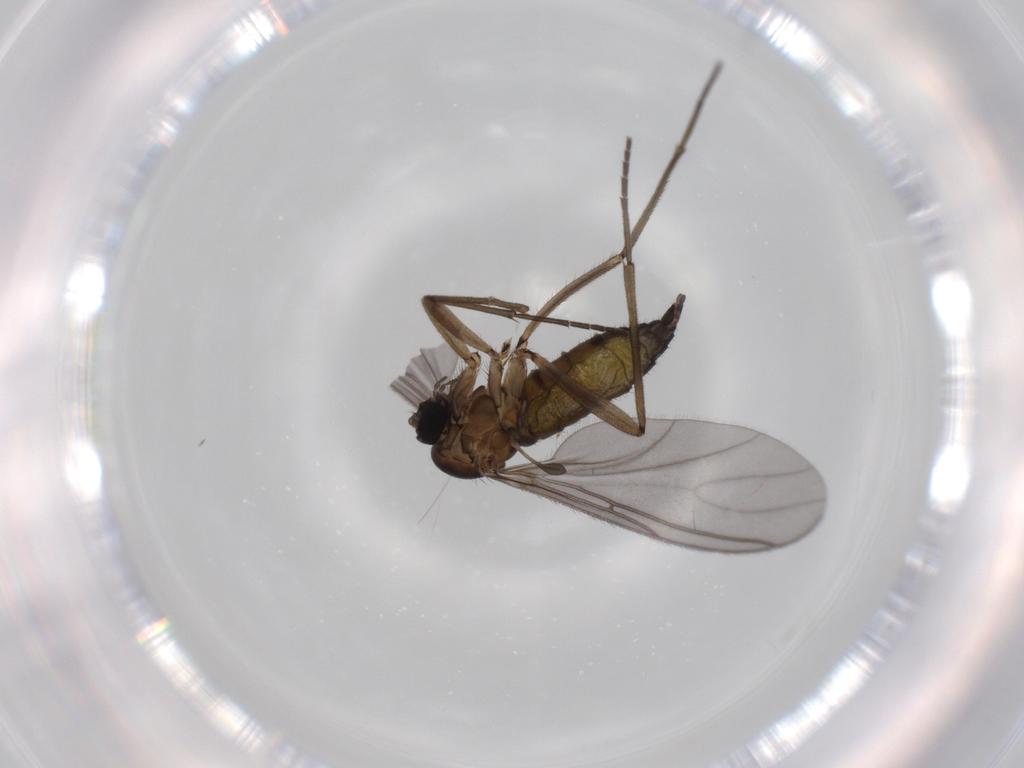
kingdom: Animalia
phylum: Arthropoda
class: Insecta
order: Diptera
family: Sciaridae
